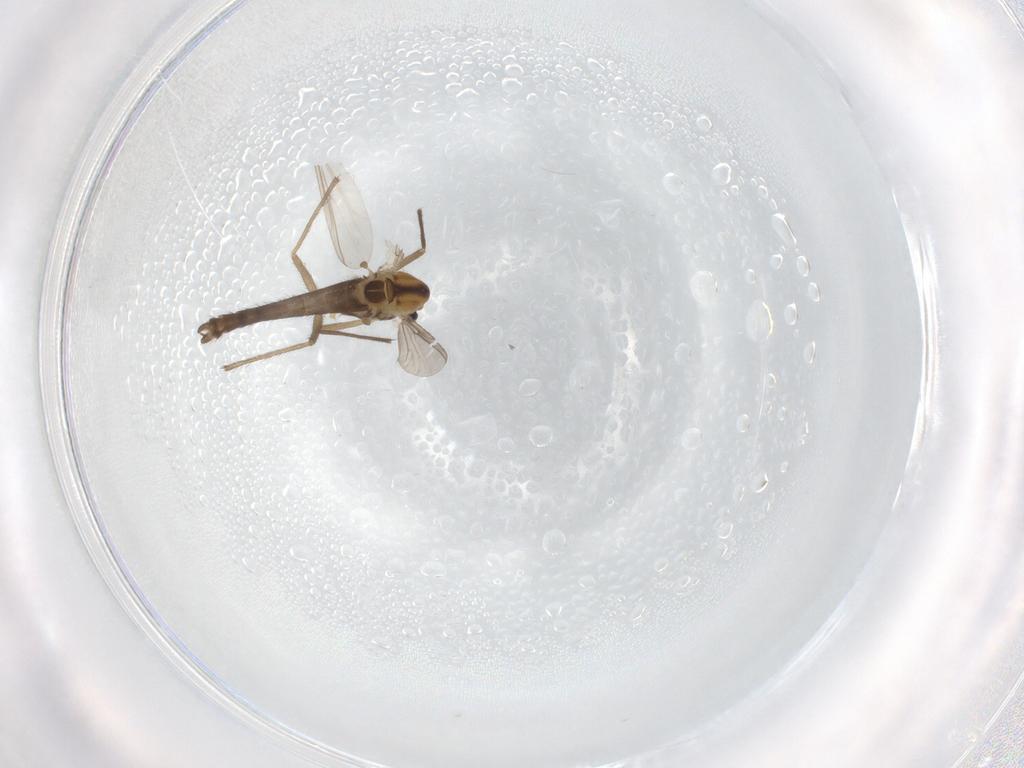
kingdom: Animalia
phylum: Arthropoda
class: Insecta
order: Diptera
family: Chironomidae
